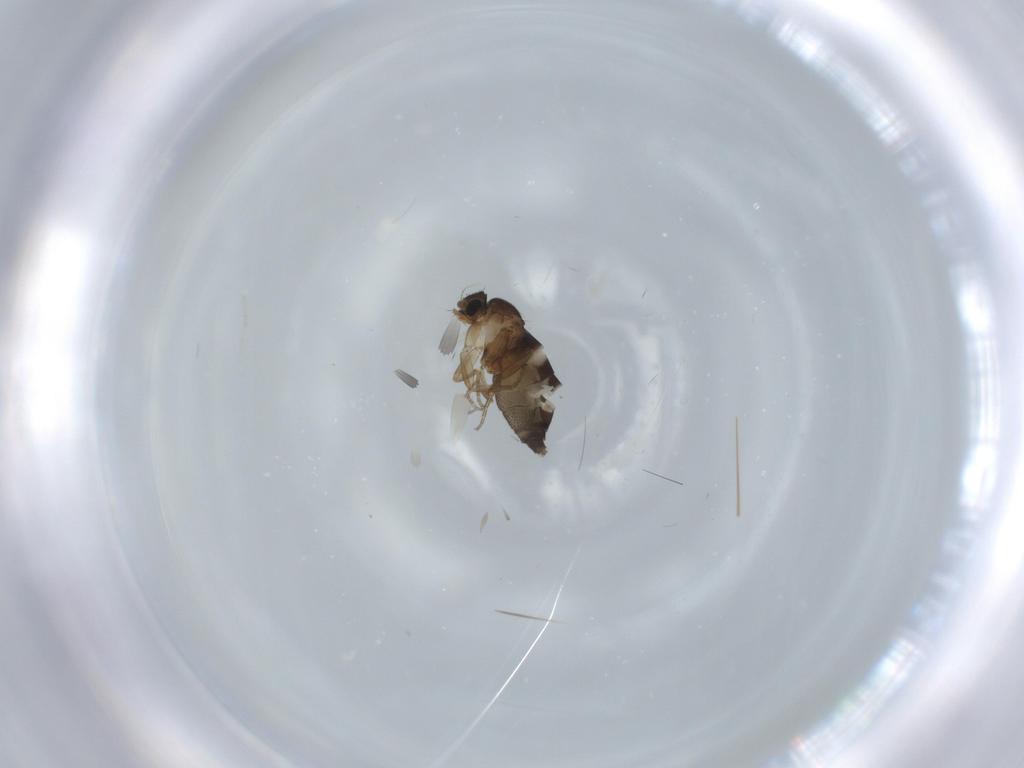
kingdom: Animalia
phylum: Arthropoda
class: Insecta
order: Diptera
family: Phoridae
